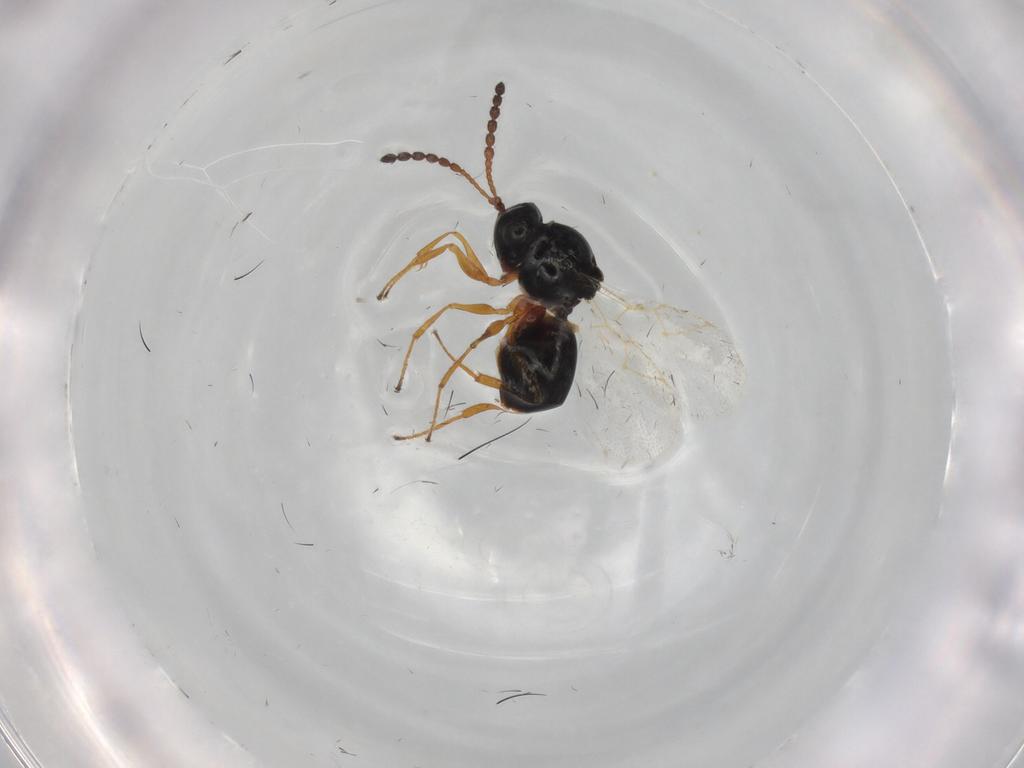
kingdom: Animalia
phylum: Arthropoda
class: Insecta
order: Hymenoptera
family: Figitidae
